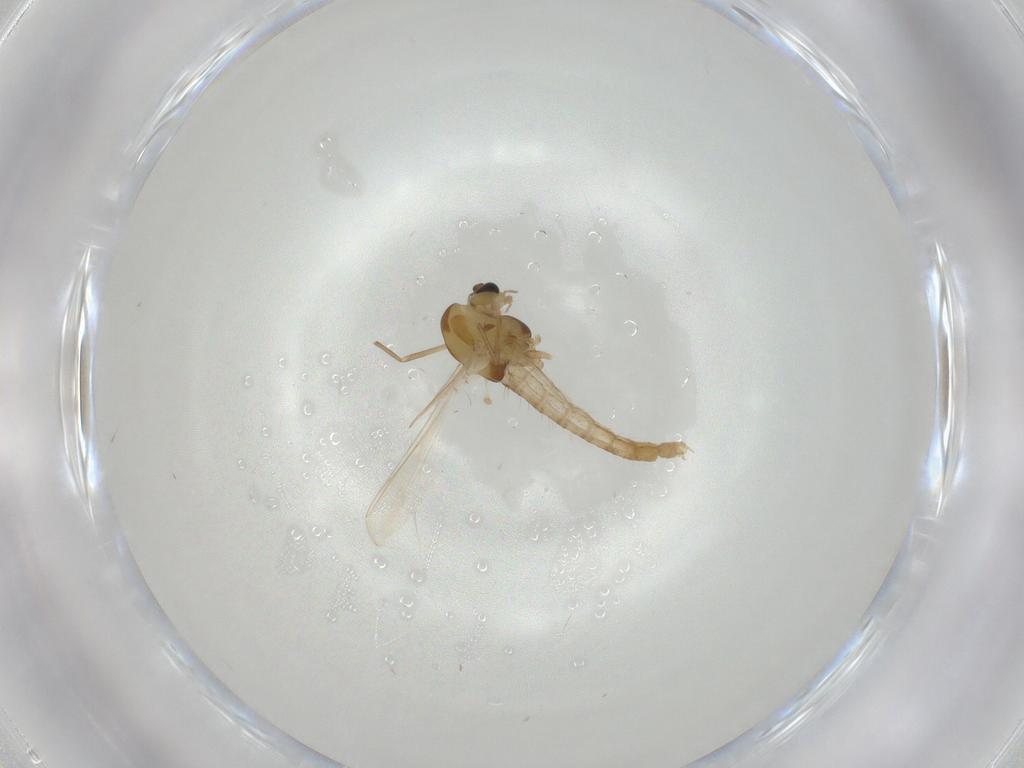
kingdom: Animalia
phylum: Arthropoda
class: Insecta
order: Diptera
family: Chironomidae
